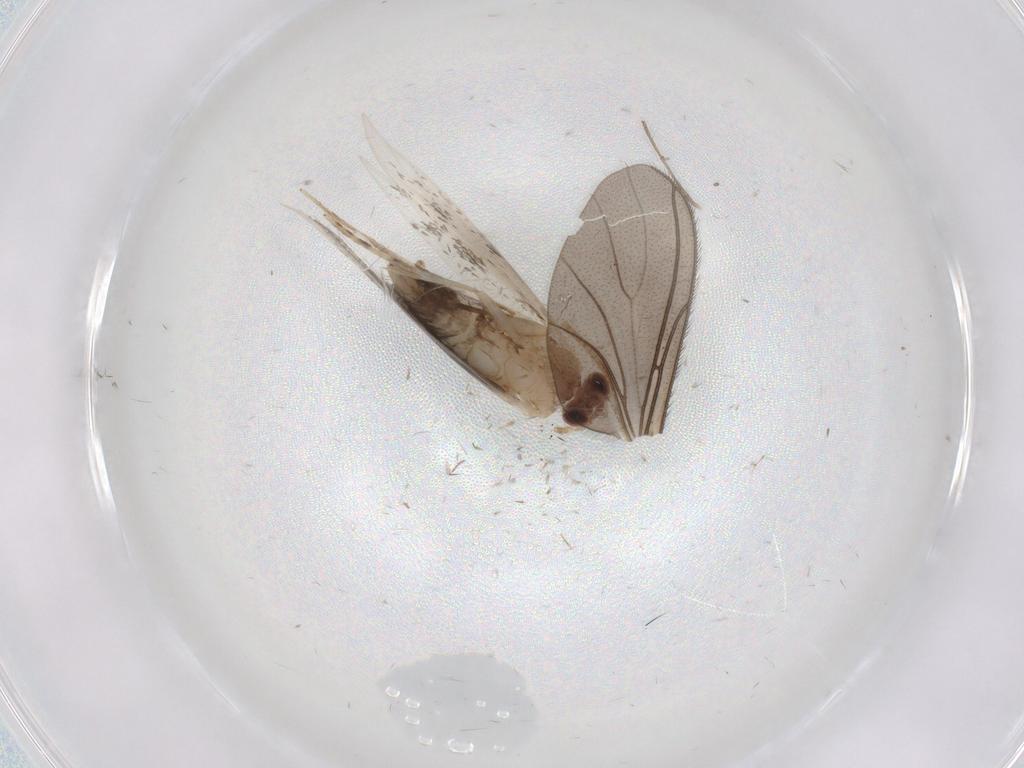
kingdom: Animalia
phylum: Arthropoda
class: Insecta
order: Lepidoptera
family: Tineidae
